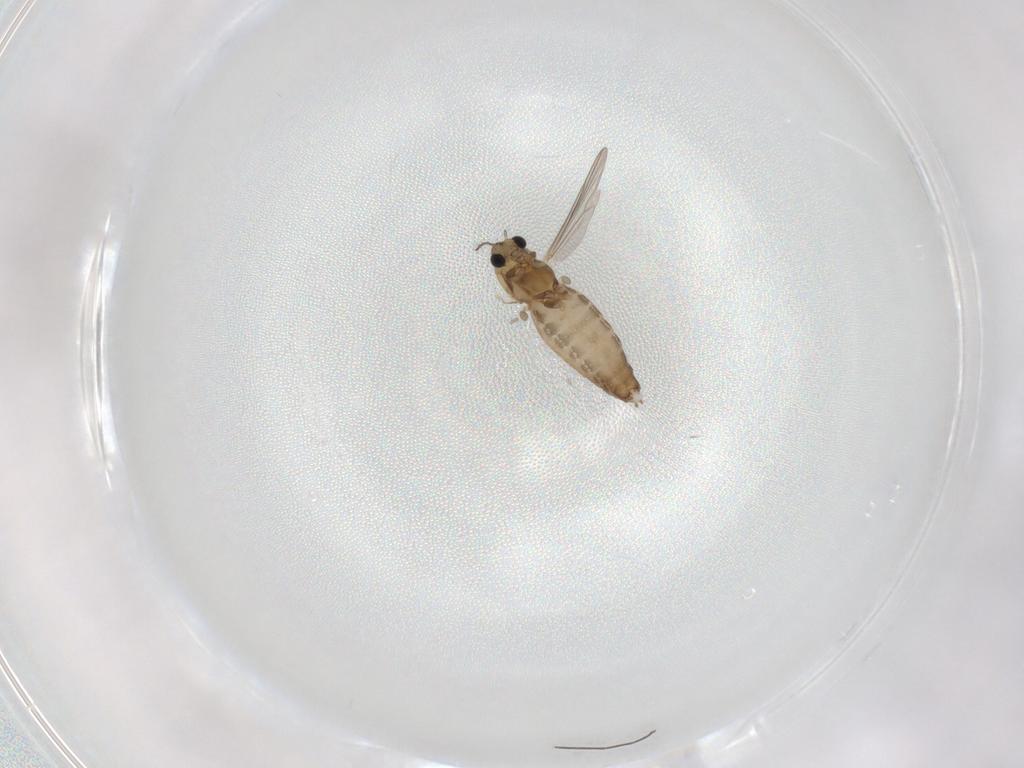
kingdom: Animalia
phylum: Arthropoda
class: Insecta
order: Diptera
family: Chironomidae
